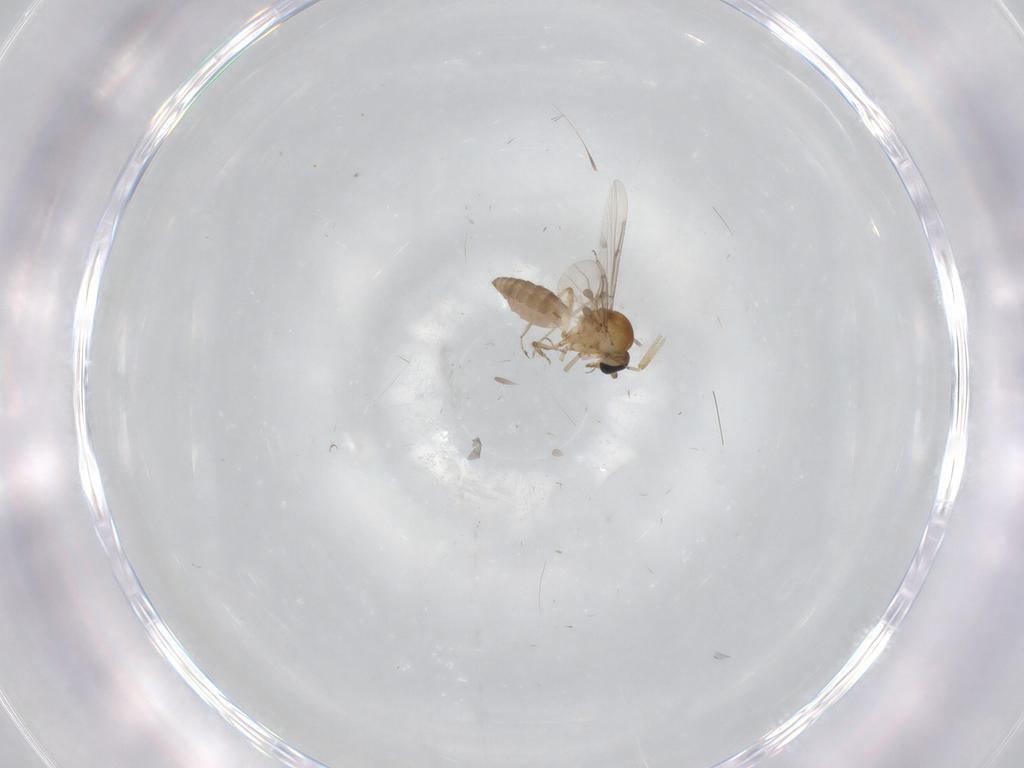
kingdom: Animalia
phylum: Arthropoda
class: Insecta
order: Diptera
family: Ceratopogonidae
